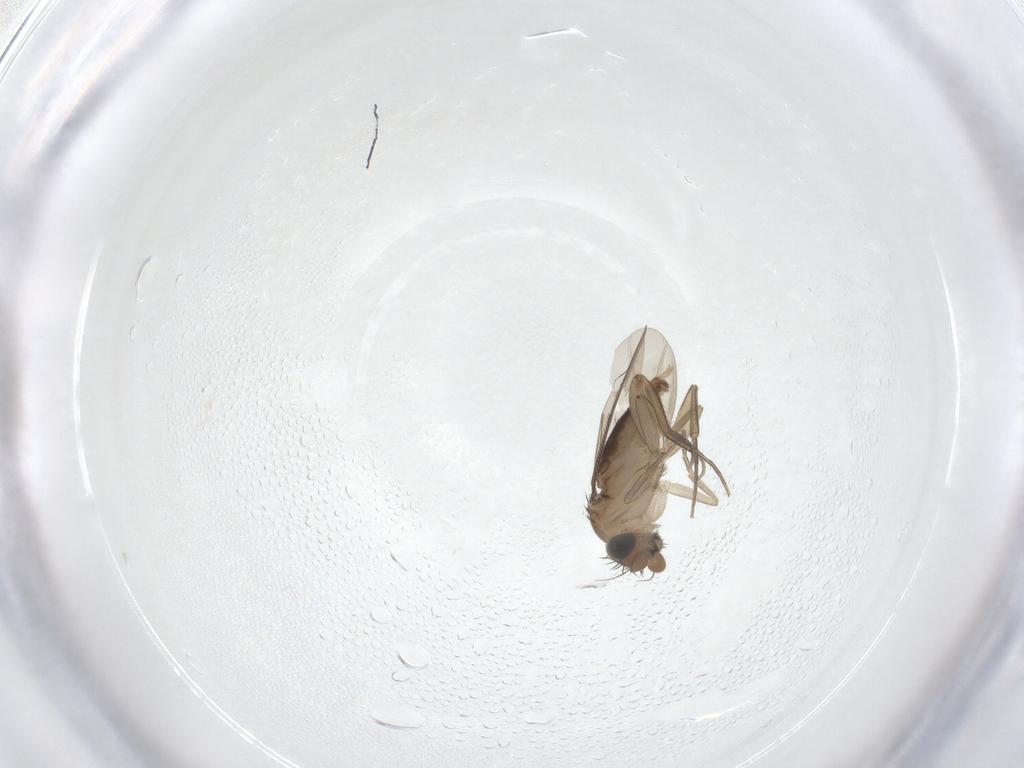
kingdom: Animalia
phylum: Arthropoda
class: Insecta
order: Diptera
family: Phoridae
